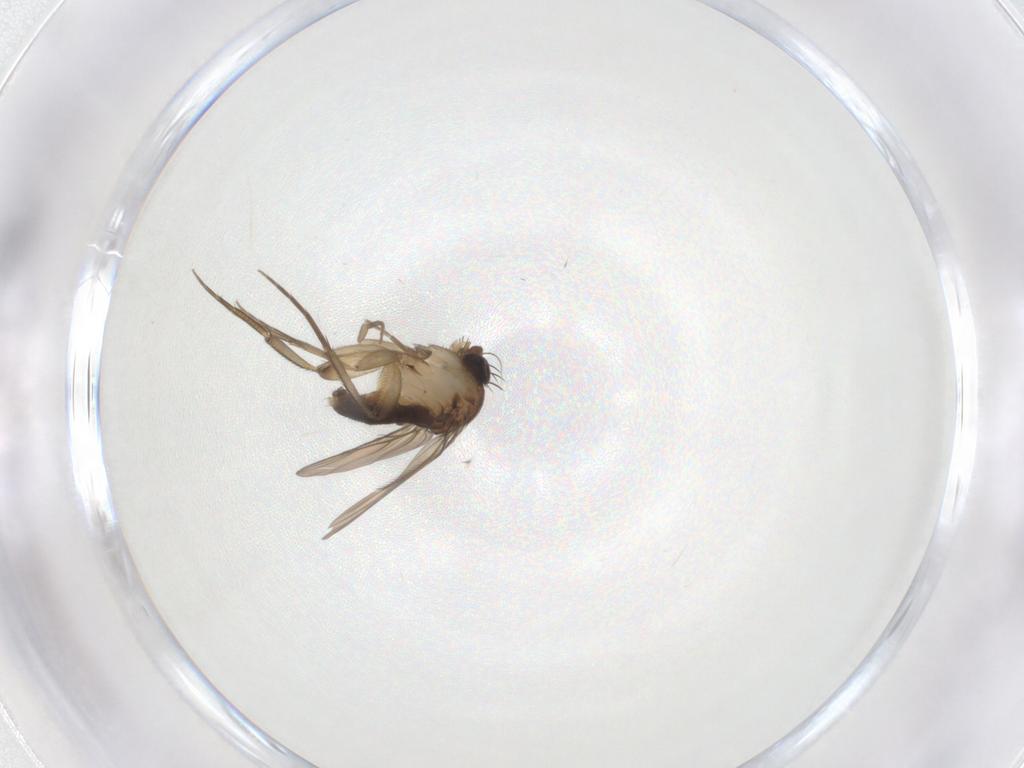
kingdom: Animalia
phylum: Arthropoda
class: Insecta
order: Diptera
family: Phoridae
